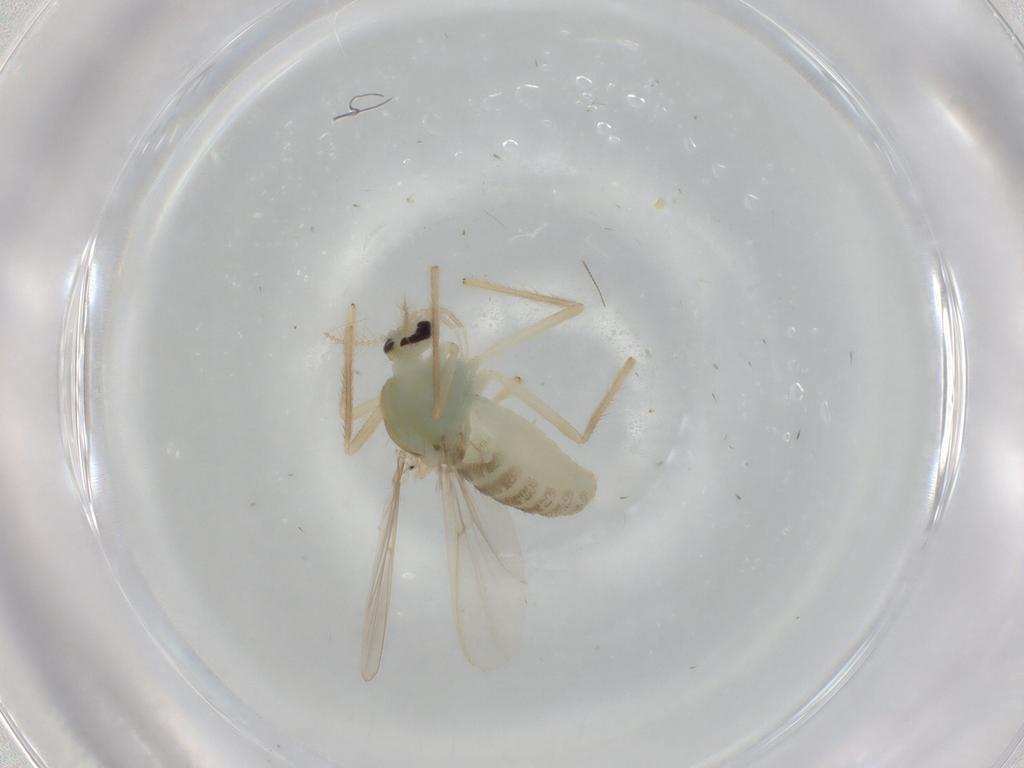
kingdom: Animalia
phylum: Arthropoda
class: Insecta
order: Diptera
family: Chironomidae
